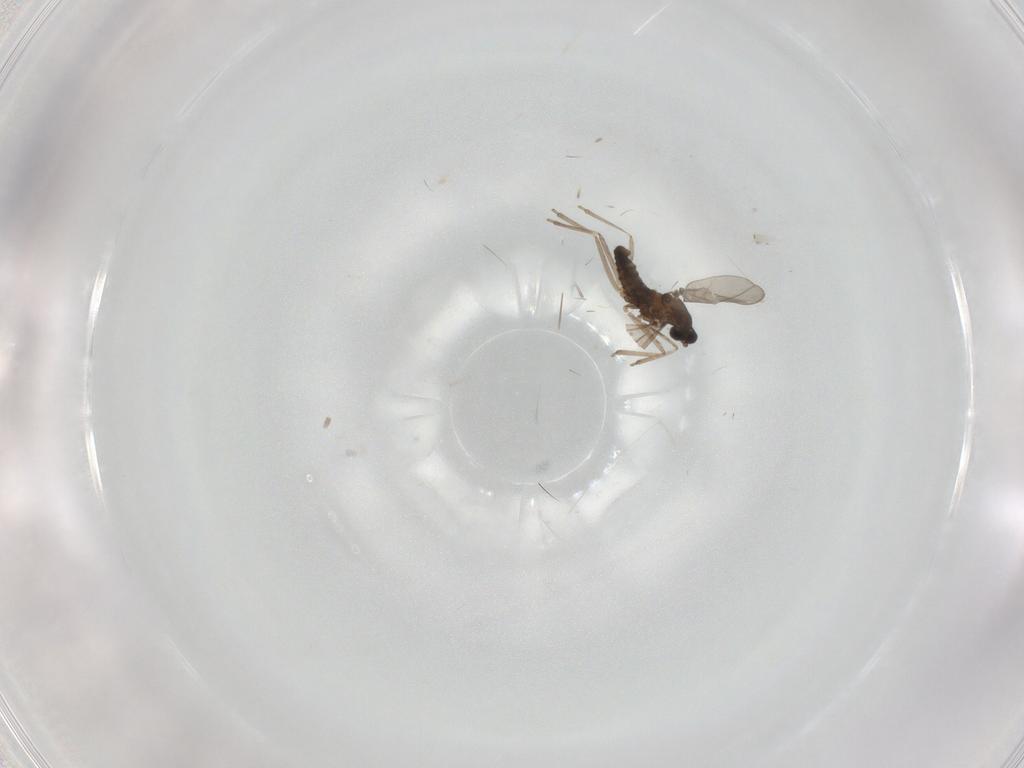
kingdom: Animalia
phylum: Arthropoda
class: Insecta
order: Diptera
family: Cecidomyiidae
